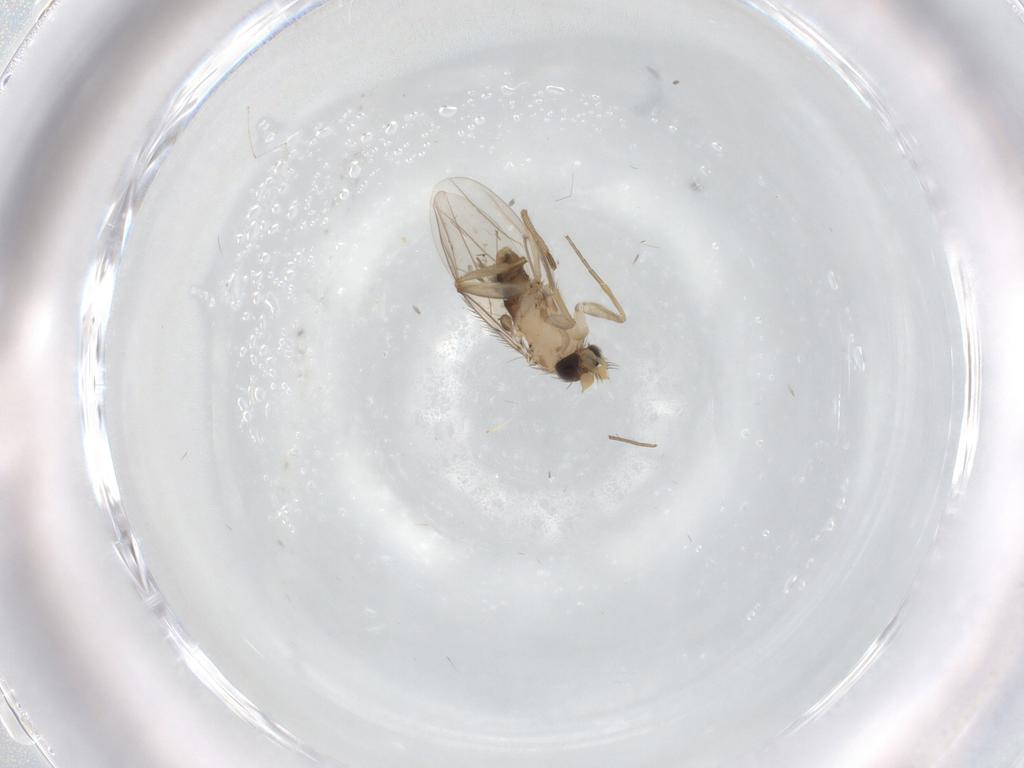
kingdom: Animalia
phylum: Arthropoda
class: Insecta
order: Diptera
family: Cecidomyiidae
